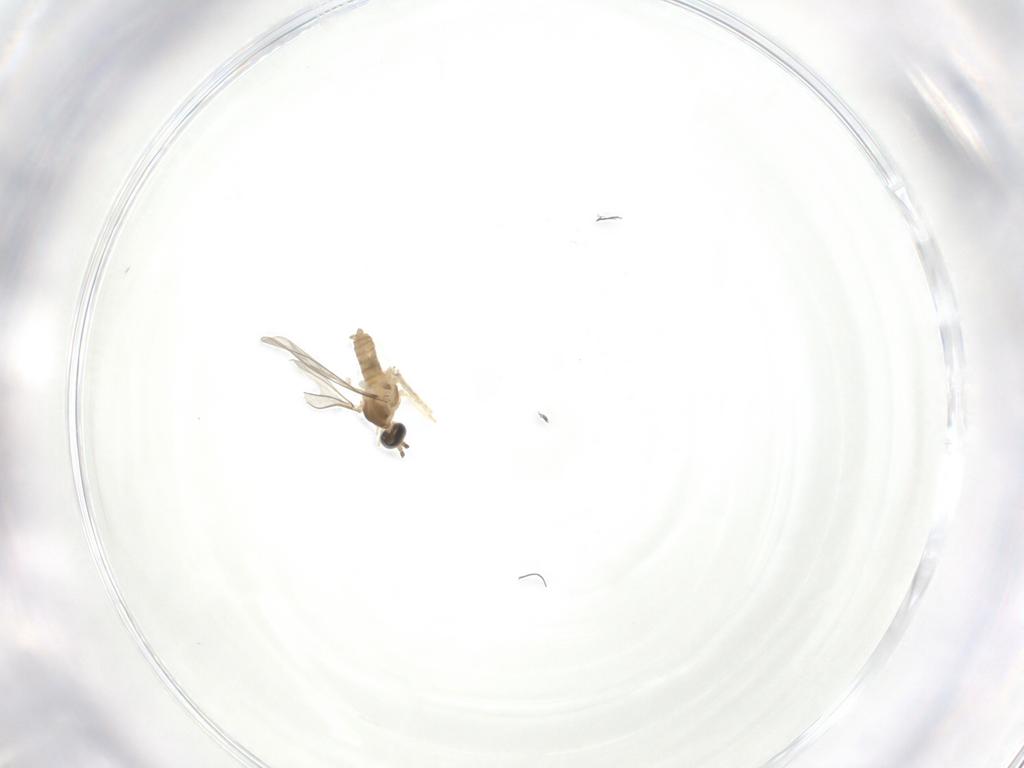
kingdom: Animalia
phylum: Arthropoda
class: Insecta
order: Diptera
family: Cecidomyiidae
